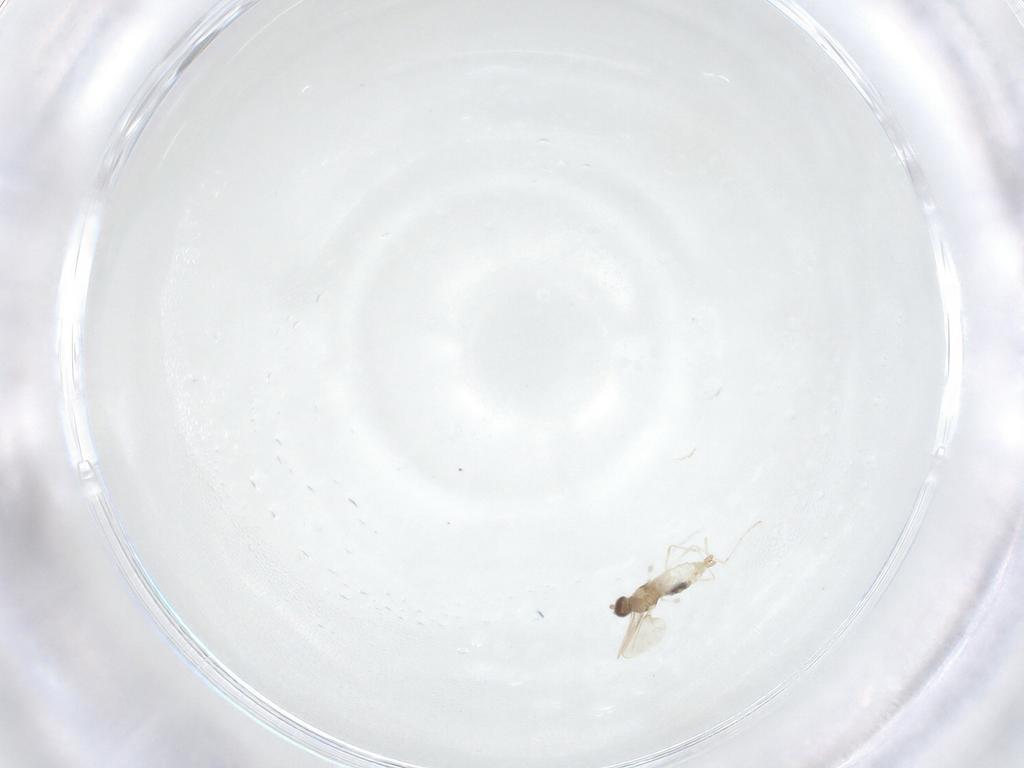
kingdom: Animalia
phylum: Arthropoda
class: Insecta
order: Diptera
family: Cecidomyiidae
